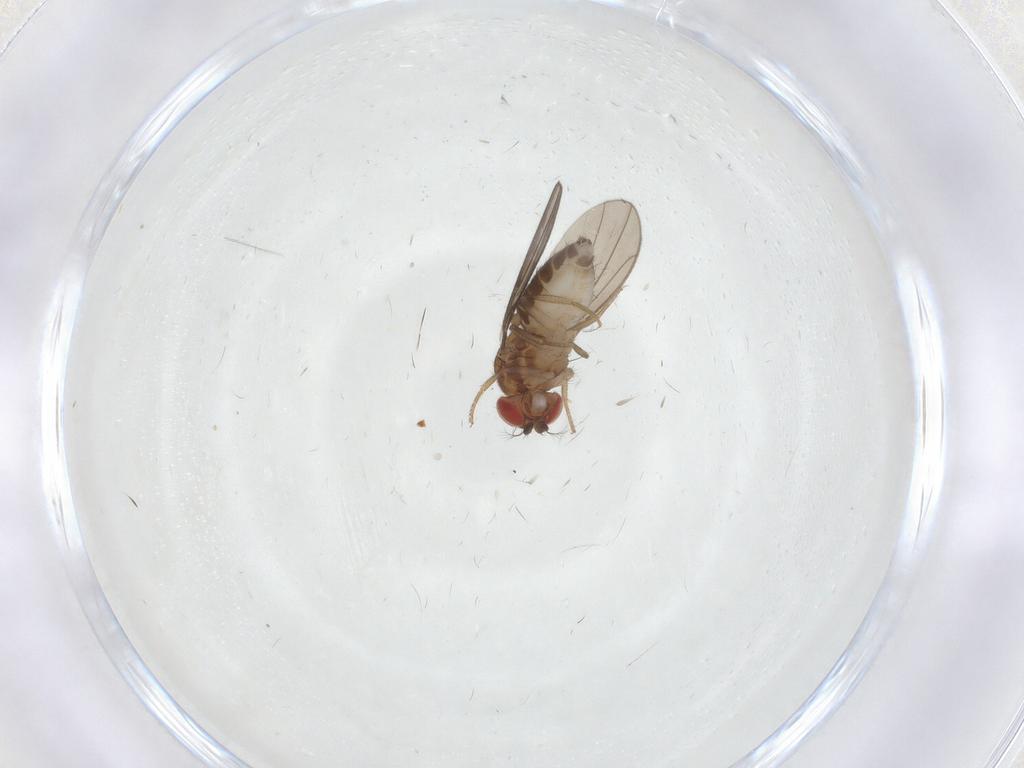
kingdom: Animalia
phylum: Arthropoda
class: Insecta
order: Diptera
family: Drosophilidae
